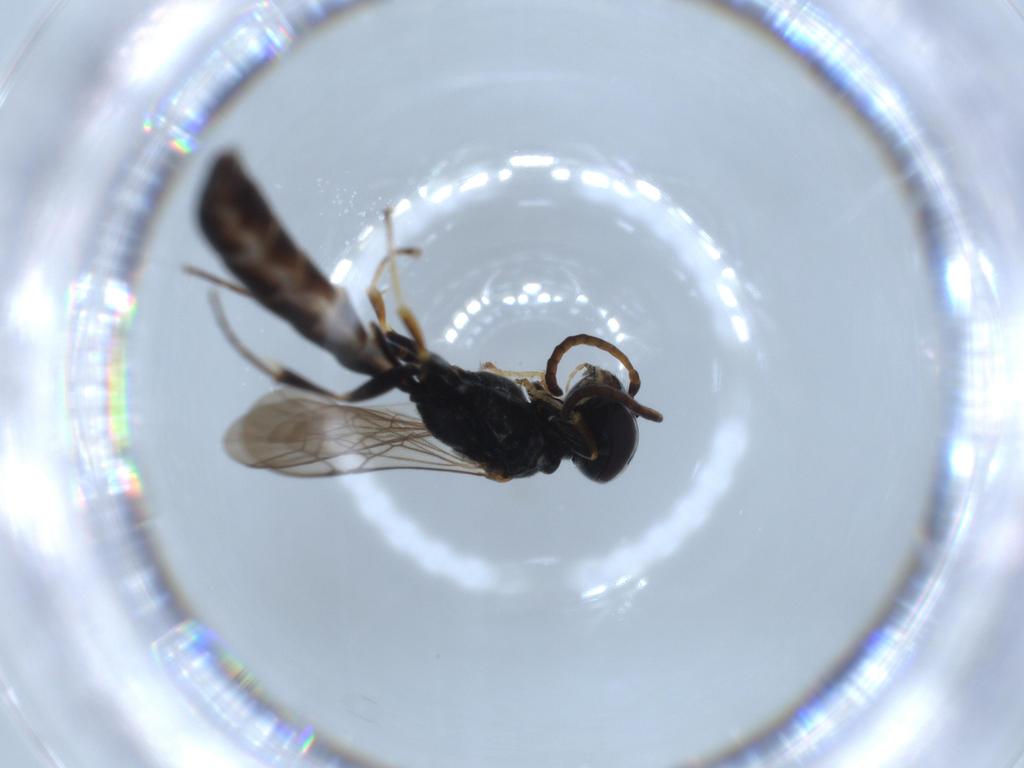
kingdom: Animalia
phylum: Arthropoda
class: Insecta
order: Hymenoptera
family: Crabronidae
